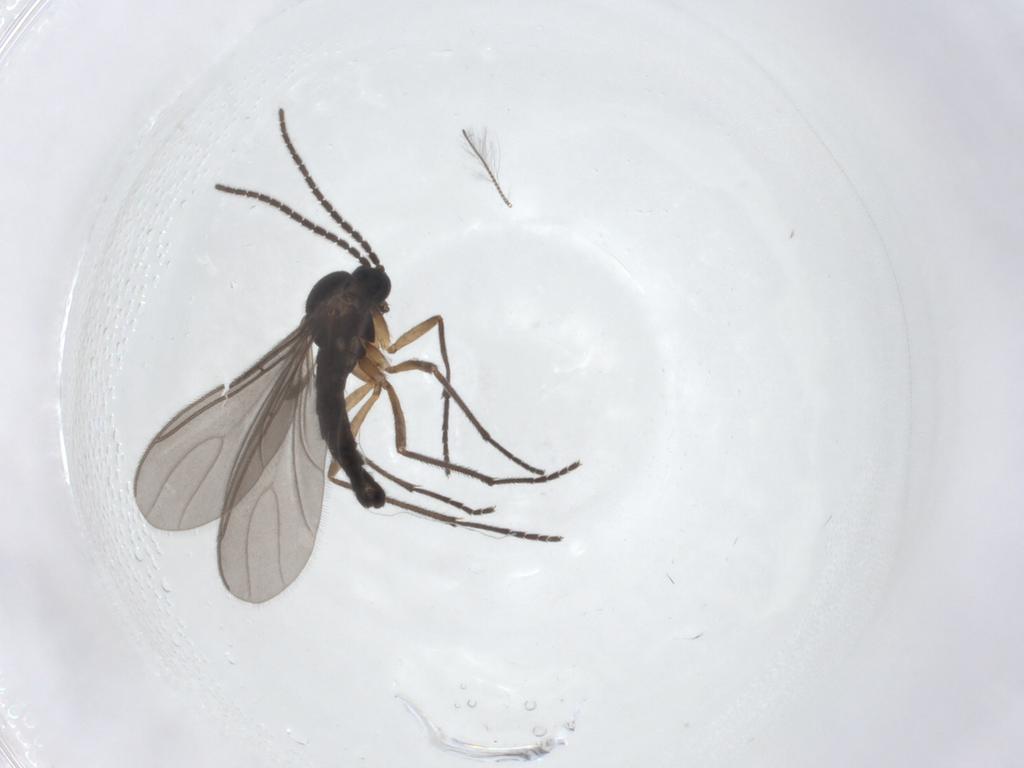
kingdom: Animalia
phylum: Arthropoda
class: Insecta
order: Diptera
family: Sciaridae
